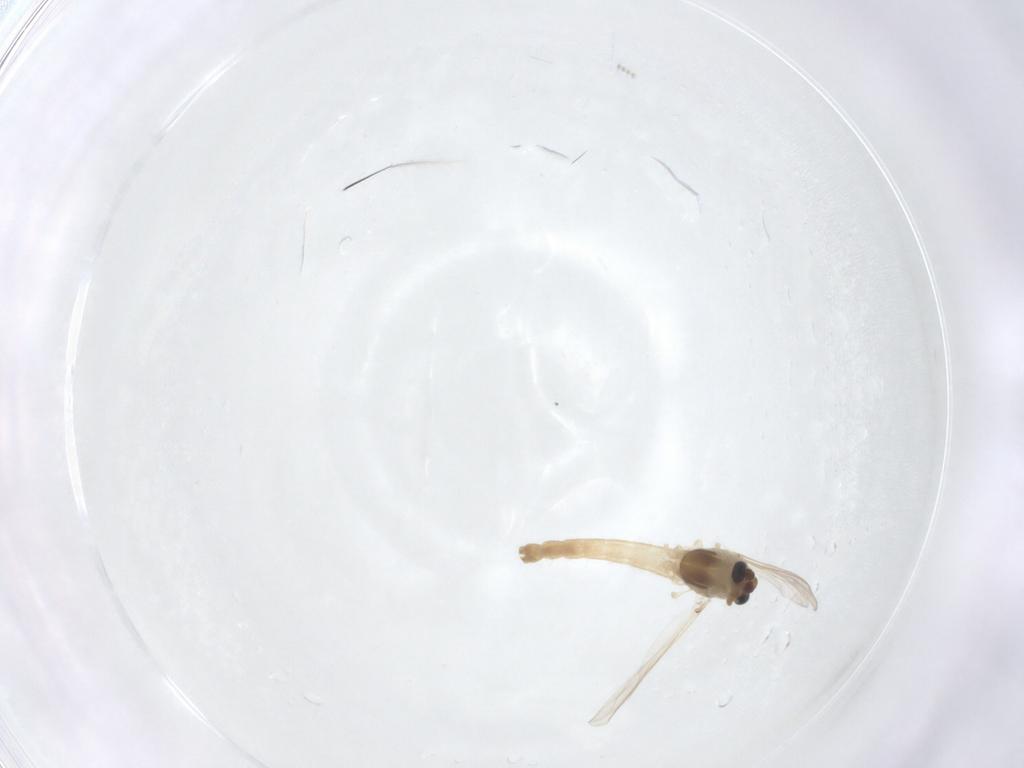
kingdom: Animalia
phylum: Arthropoda
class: Insecta
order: Diptera
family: Chironomidae
